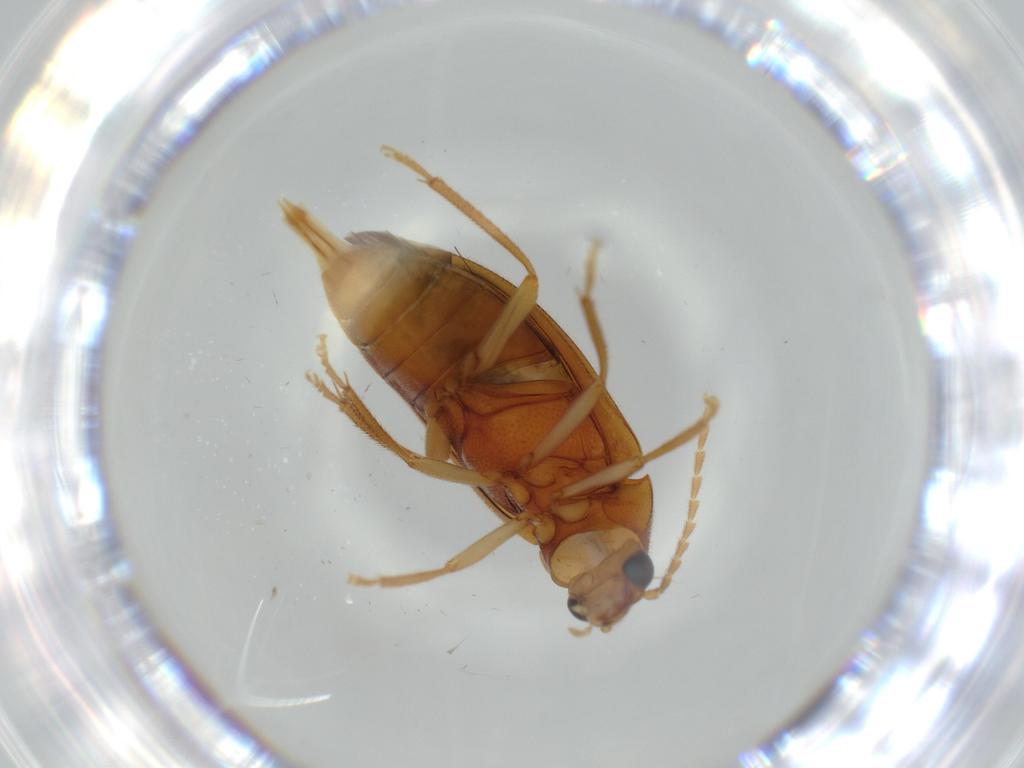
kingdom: Animalia
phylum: Arthropoda
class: Insecta
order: Coleoptera
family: Ptilodactylidae
